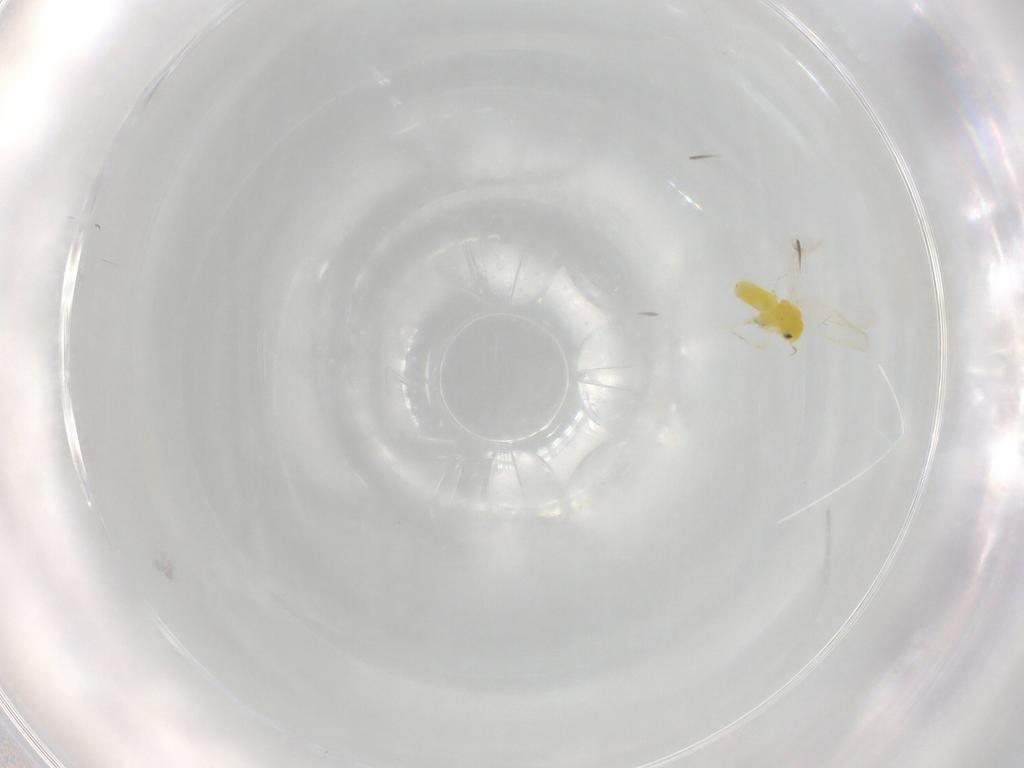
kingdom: Animalia
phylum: Arthropoda
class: Insecta
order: Hemiptera
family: Aleyrodidae
